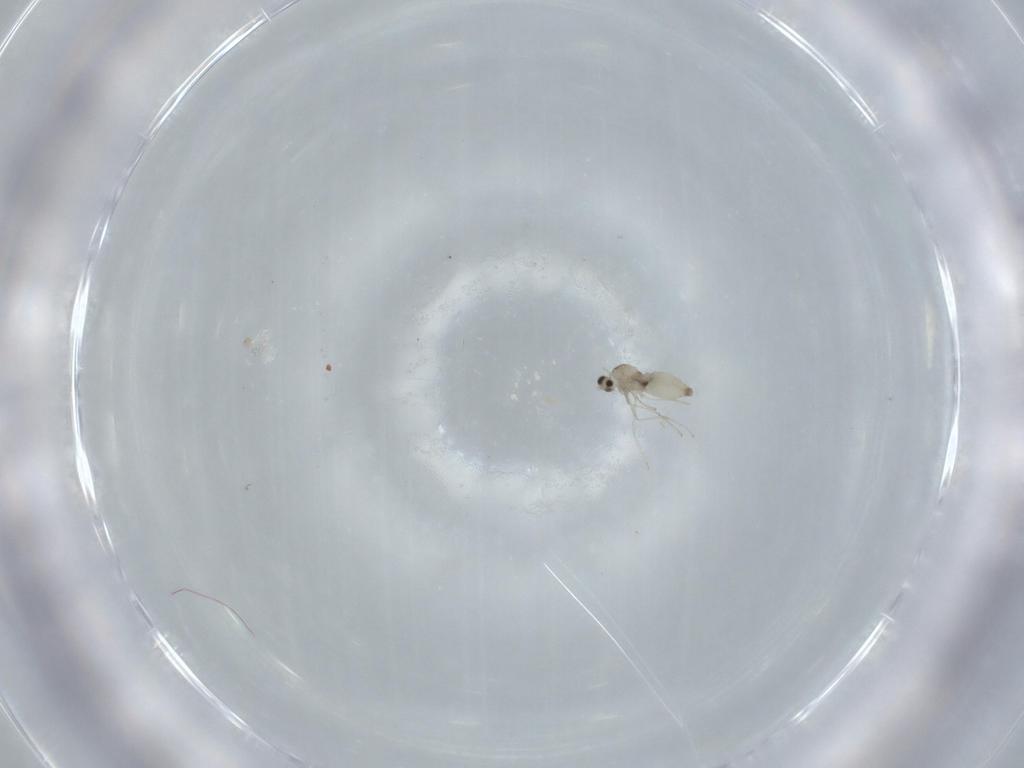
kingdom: Animalia
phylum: Arthropoda
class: Insecta
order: Diptera
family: Cecidomyiidae
